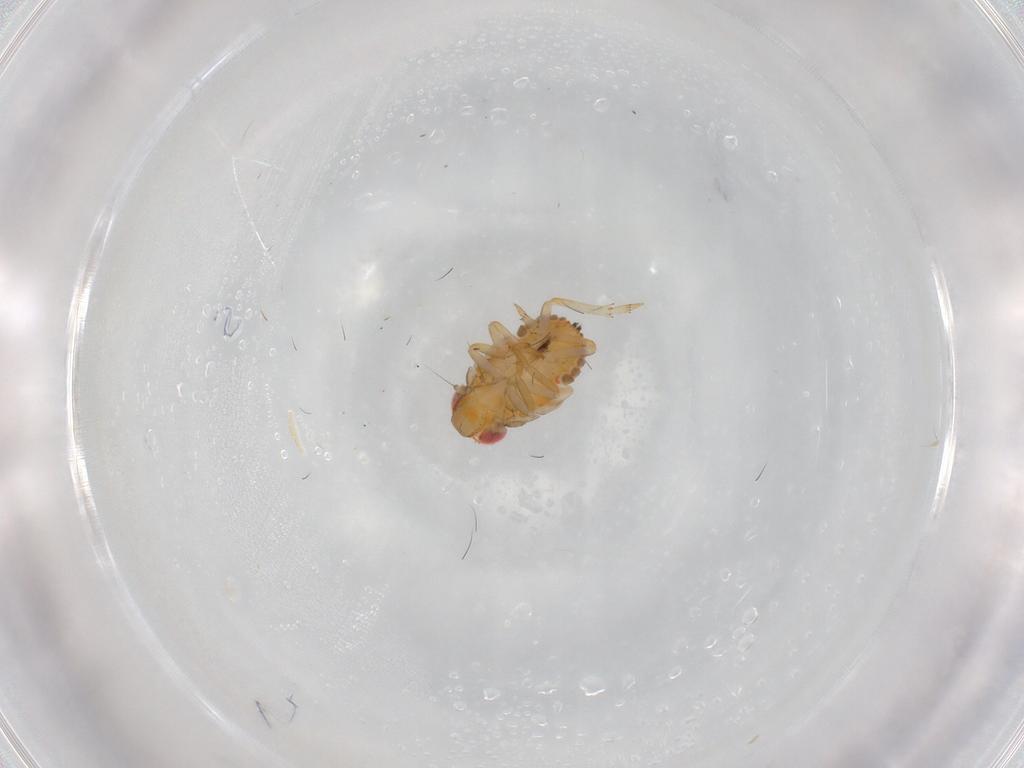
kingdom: Animalia
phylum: Arthropoda
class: Insecta
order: Hemiptera
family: Issidae
